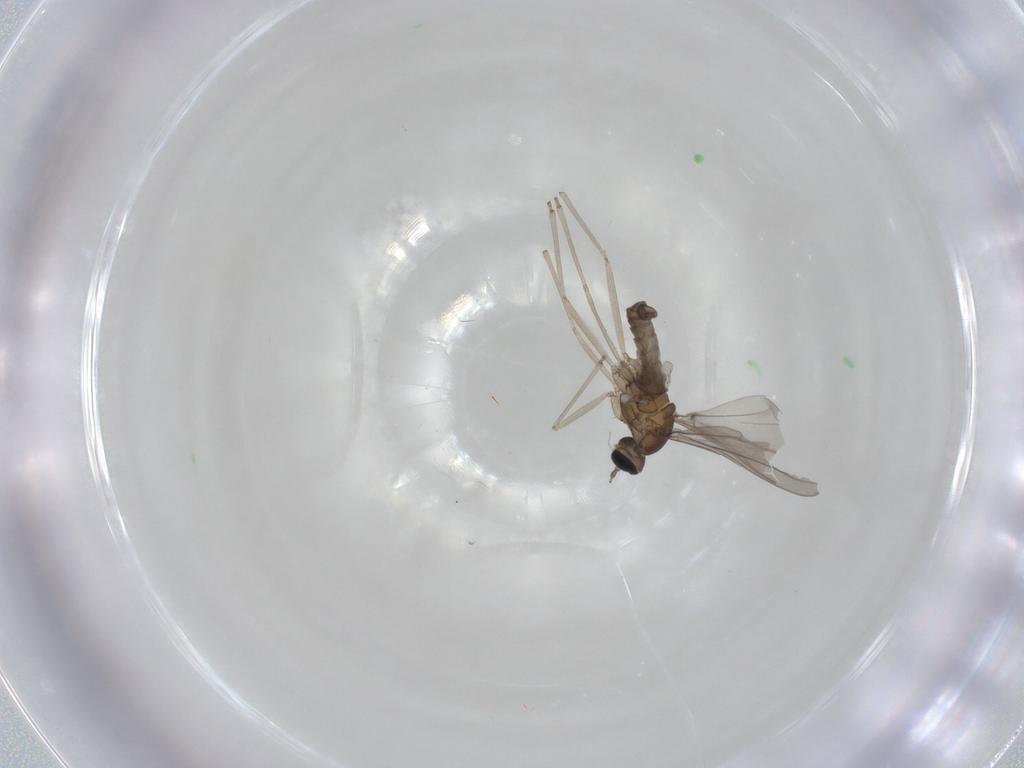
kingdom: Animalia
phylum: Arthropoda
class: Insecta
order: Diptera
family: Cecidomyiidae
